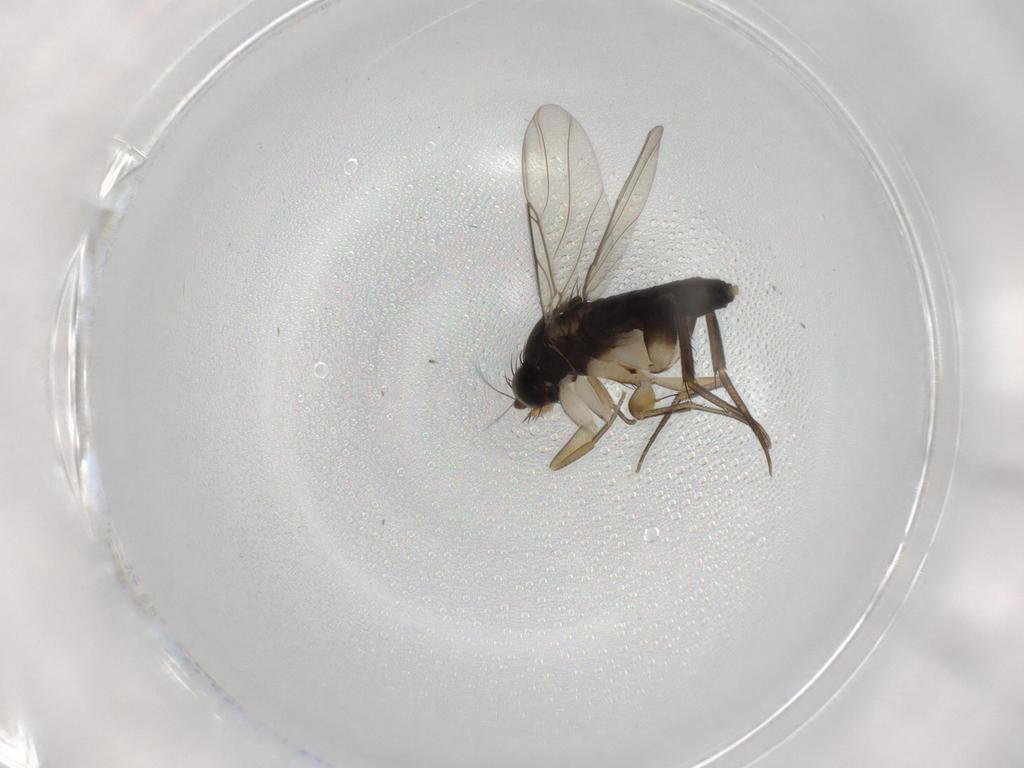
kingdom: Animalia
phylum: Arthropoda
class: Insecta
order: Diptera
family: Phoridae
